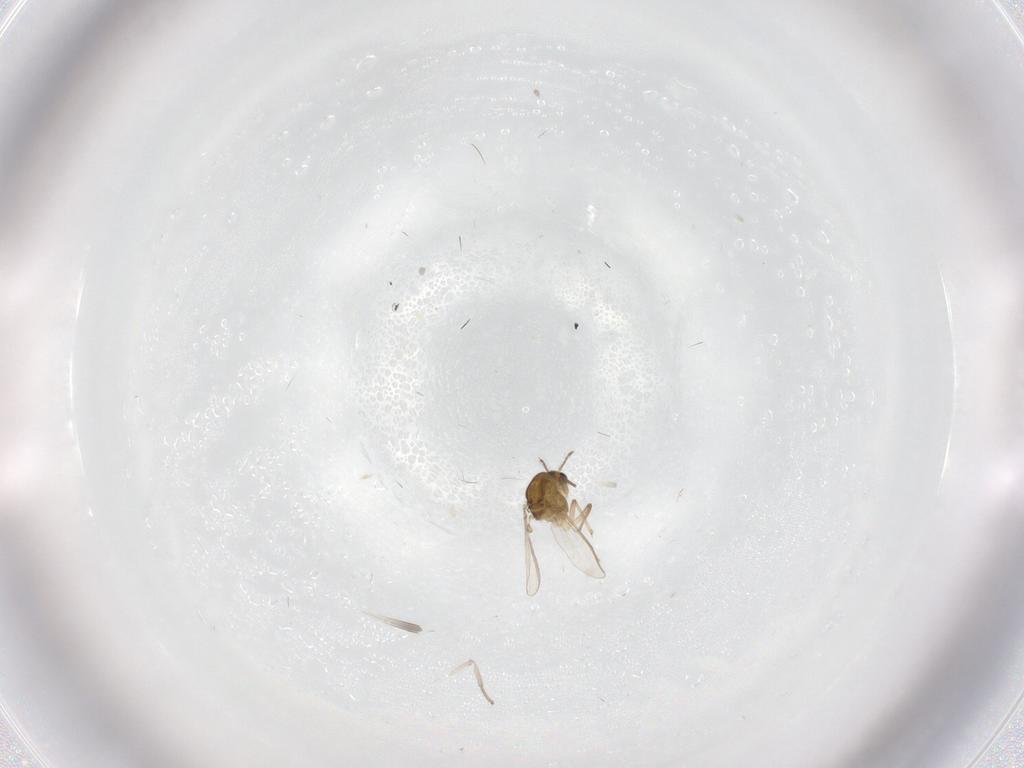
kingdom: Animalia
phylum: Arthropoda
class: Insecta
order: Diptera
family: Chironomidae
